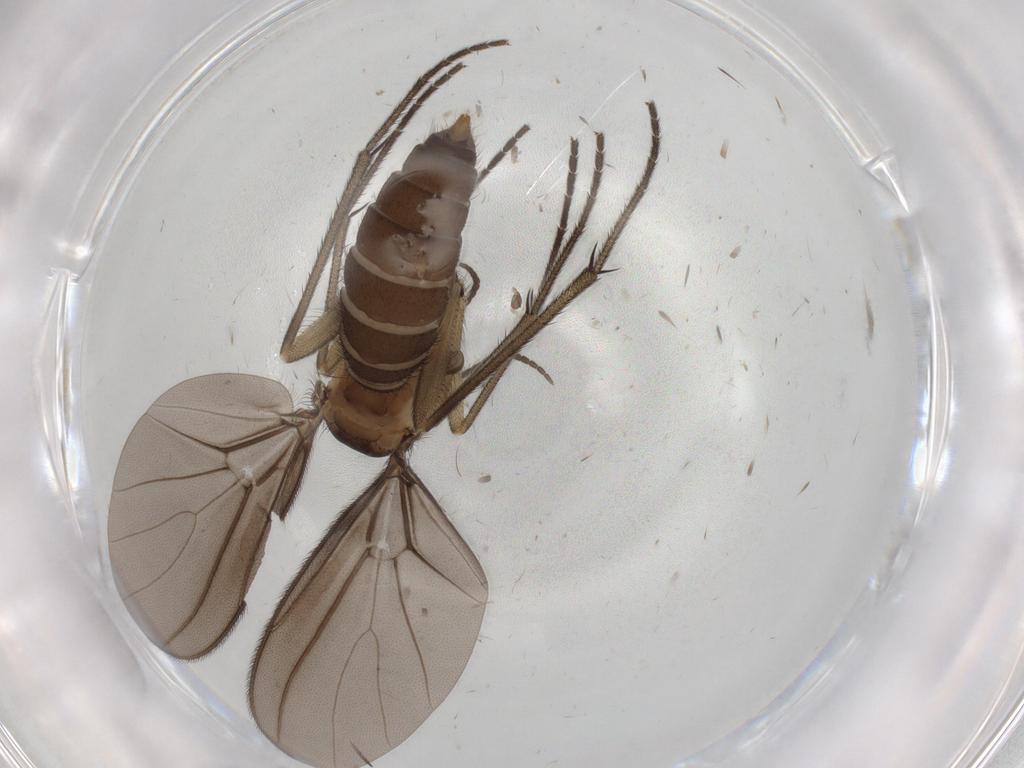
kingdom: Animalia
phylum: Arthropoda
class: Insecta
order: Diptera
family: Diadocidiidae
